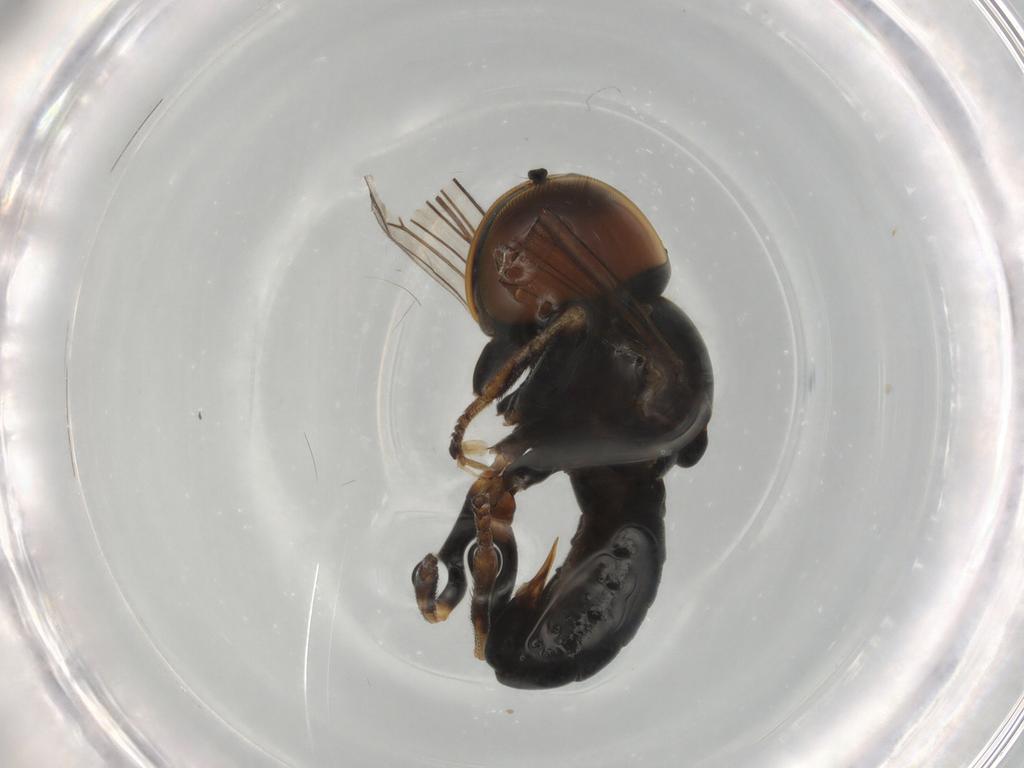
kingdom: Animalia
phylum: Arthropoda
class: Insecta
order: Diptera
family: Pipunculidae
